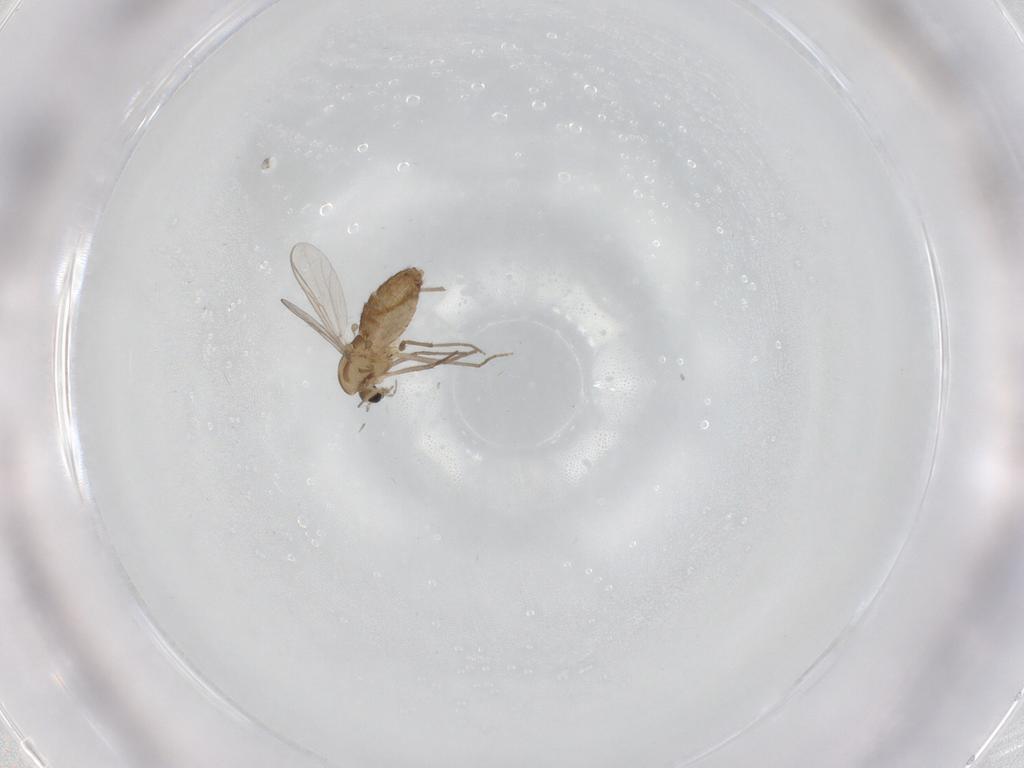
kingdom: Animalia
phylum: Arthropoda
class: Insecta
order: Diptera
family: Chironomidae
